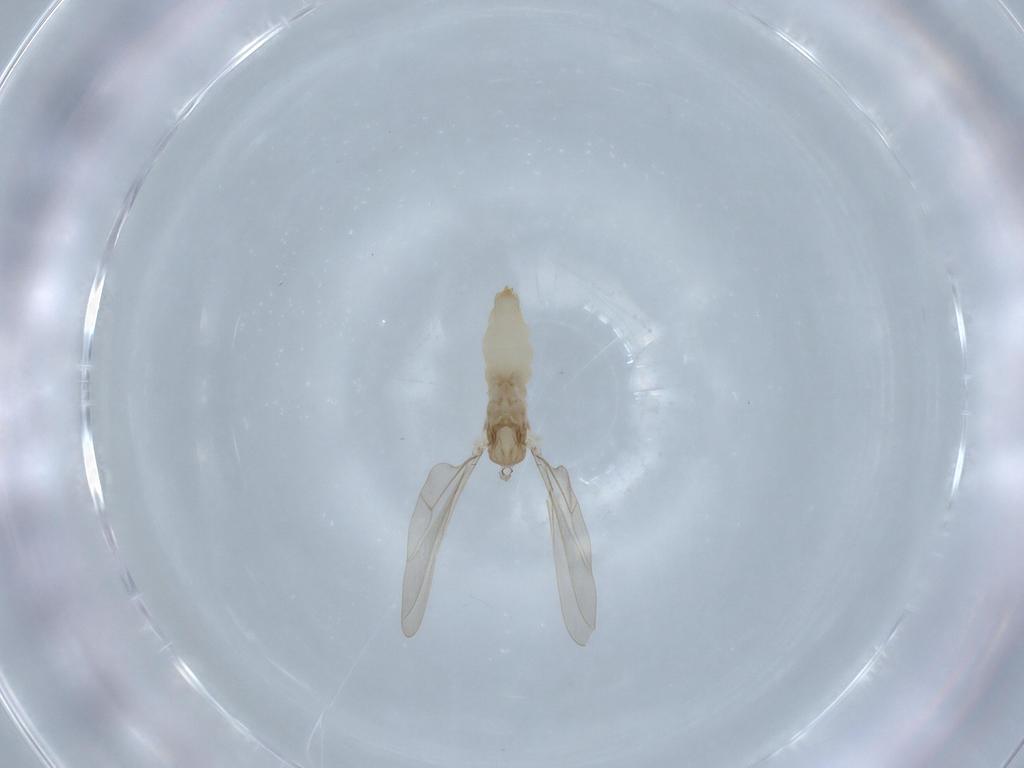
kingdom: Animalia
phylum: Arthropoda
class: Insecta
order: Diptera
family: Cecidomyiidae
